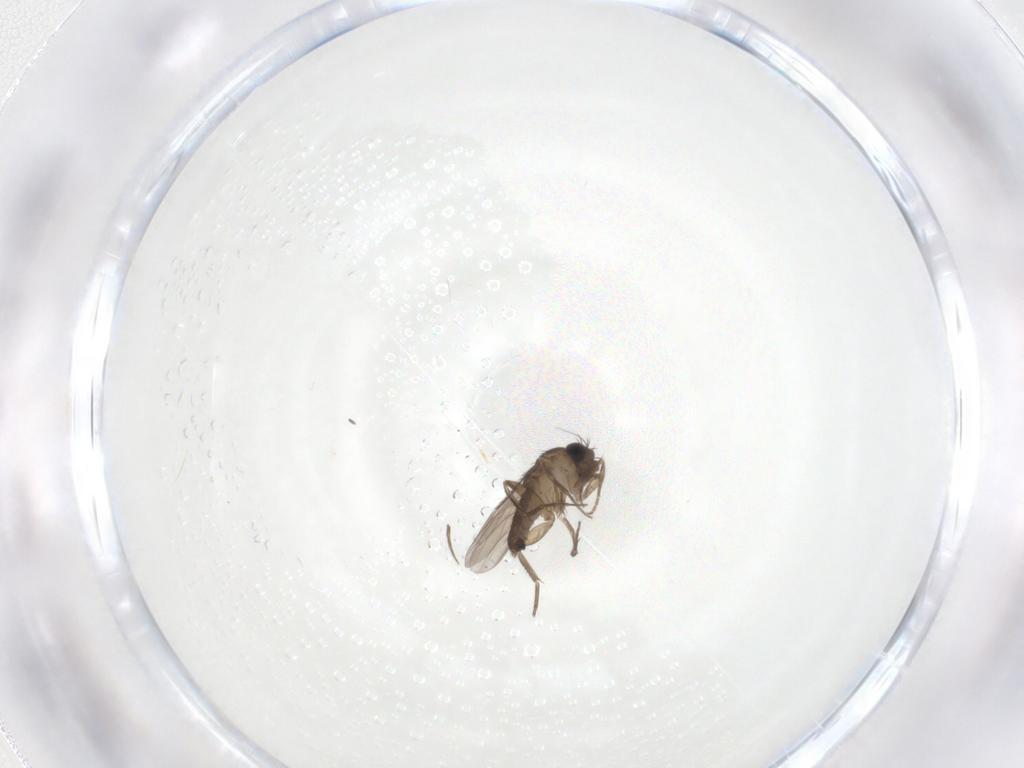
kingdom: Animalia
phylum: Arthropoda
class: Insecta
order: Diptera
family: Phoridae
